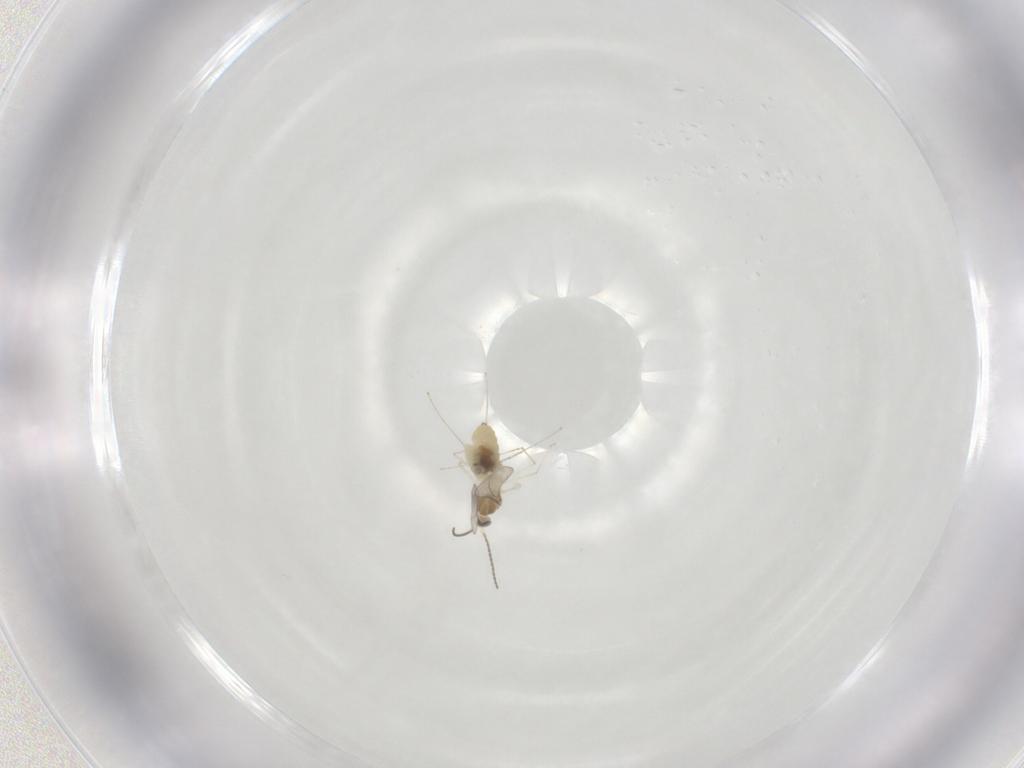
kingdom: Animalia
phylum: Arthropoda
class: Insecta
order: Diptera
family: Cecidomyiidae
